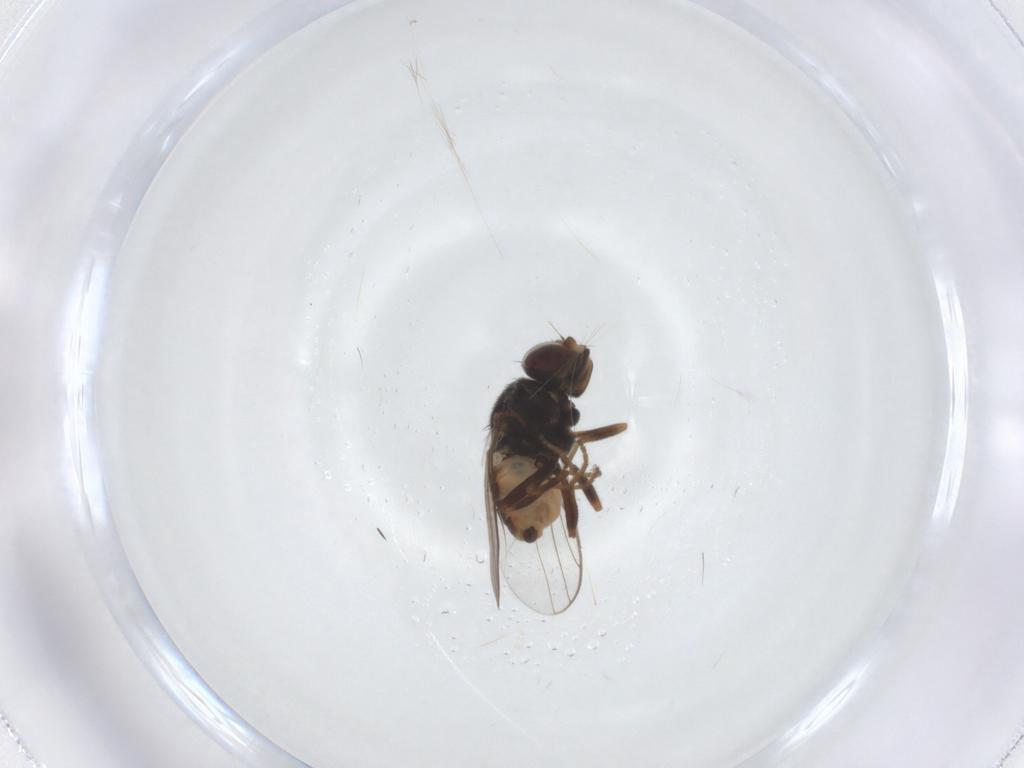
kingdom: Animalia
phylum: Arthropoda
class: Insecta
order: Diptera
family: Chloropidae
